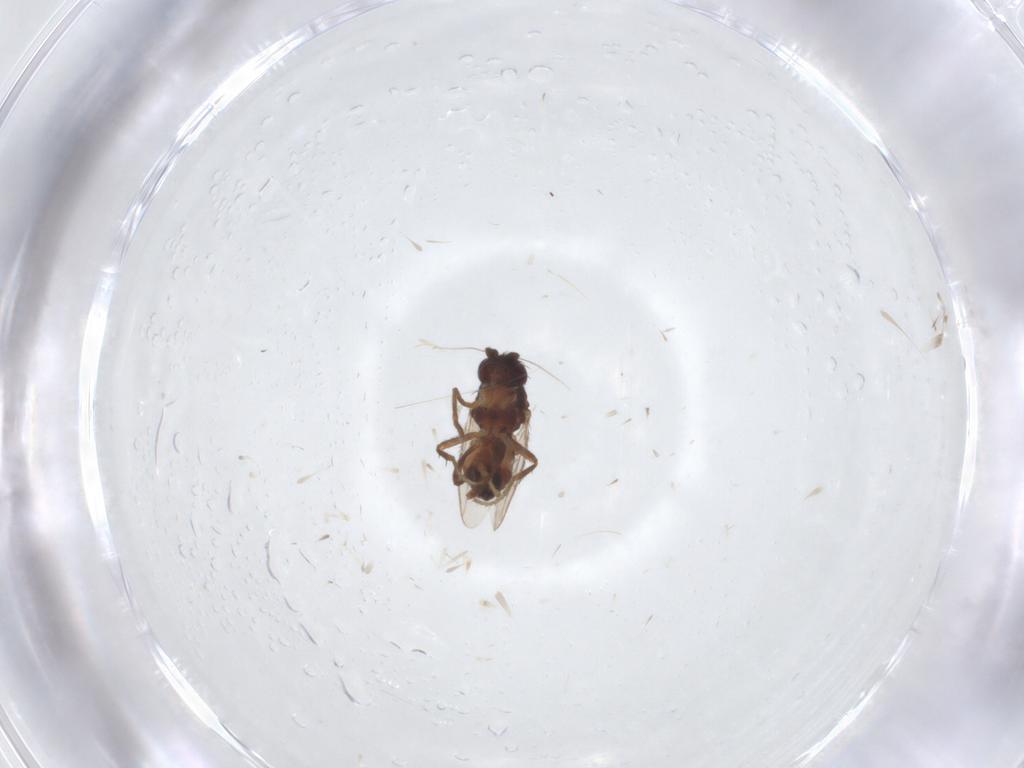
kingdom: Animalia
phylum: Arthropoda
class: Insecta
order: Diptera
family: Sphaeroceridae
